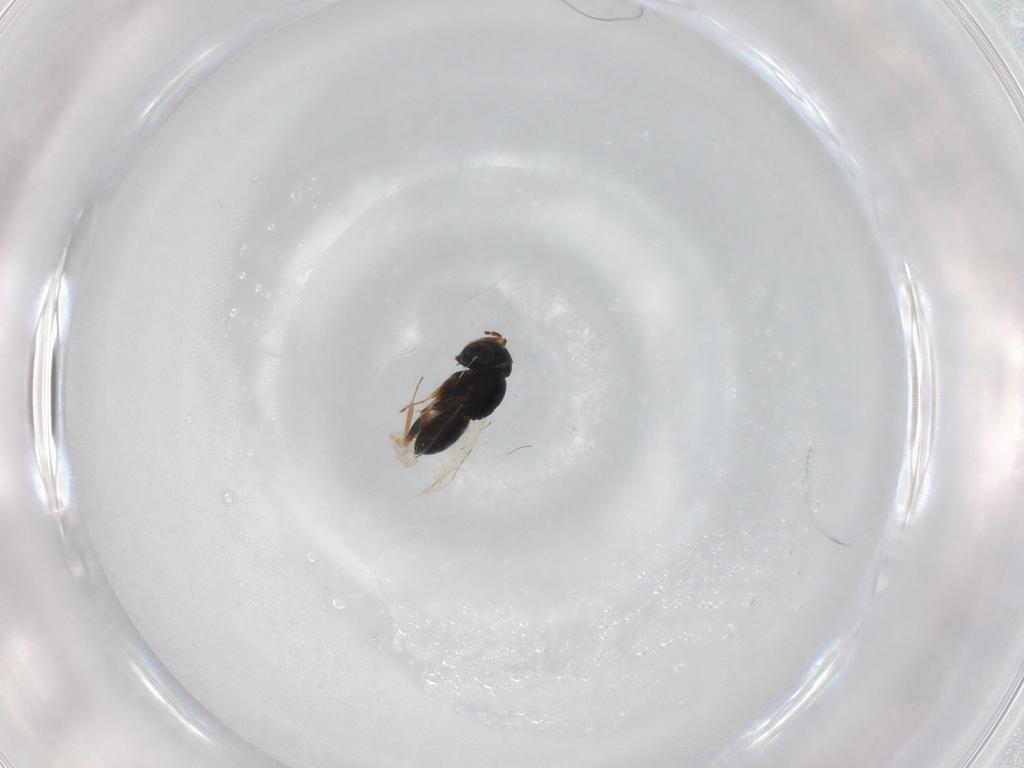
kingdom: Animalia
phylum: Arthropoda
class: Insecta
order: Coleoptera
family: Curculionidae
